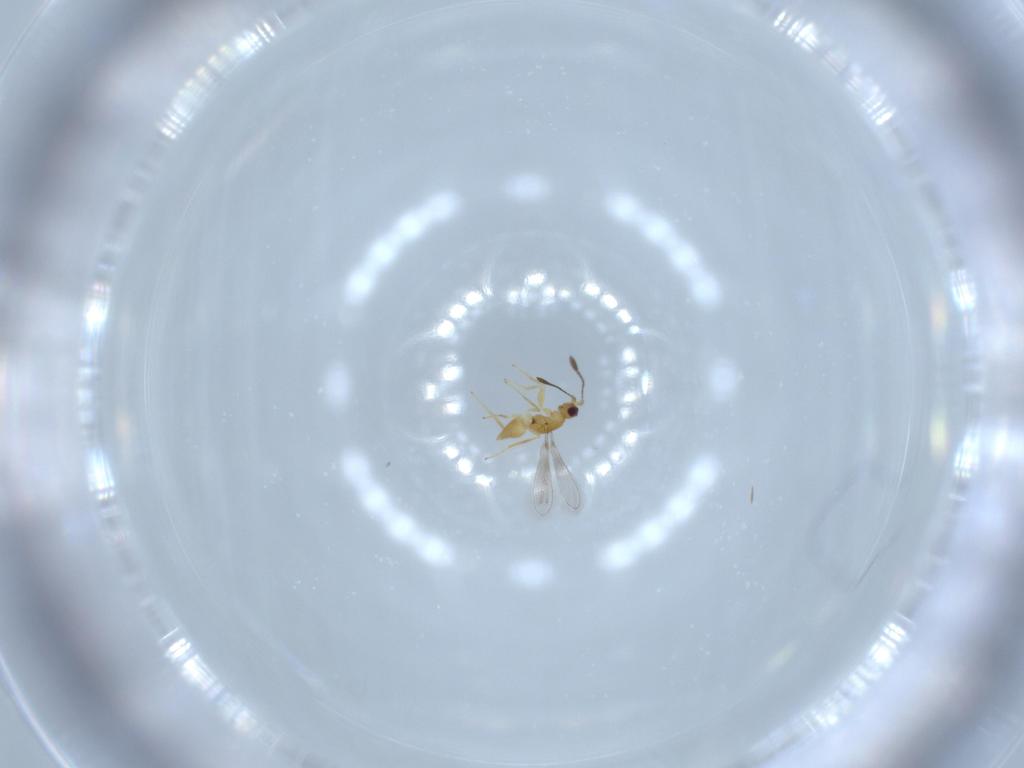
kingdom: Animalia
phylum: Arthropoda
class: Insecta
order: Hymenoptera
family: Mymaridae
